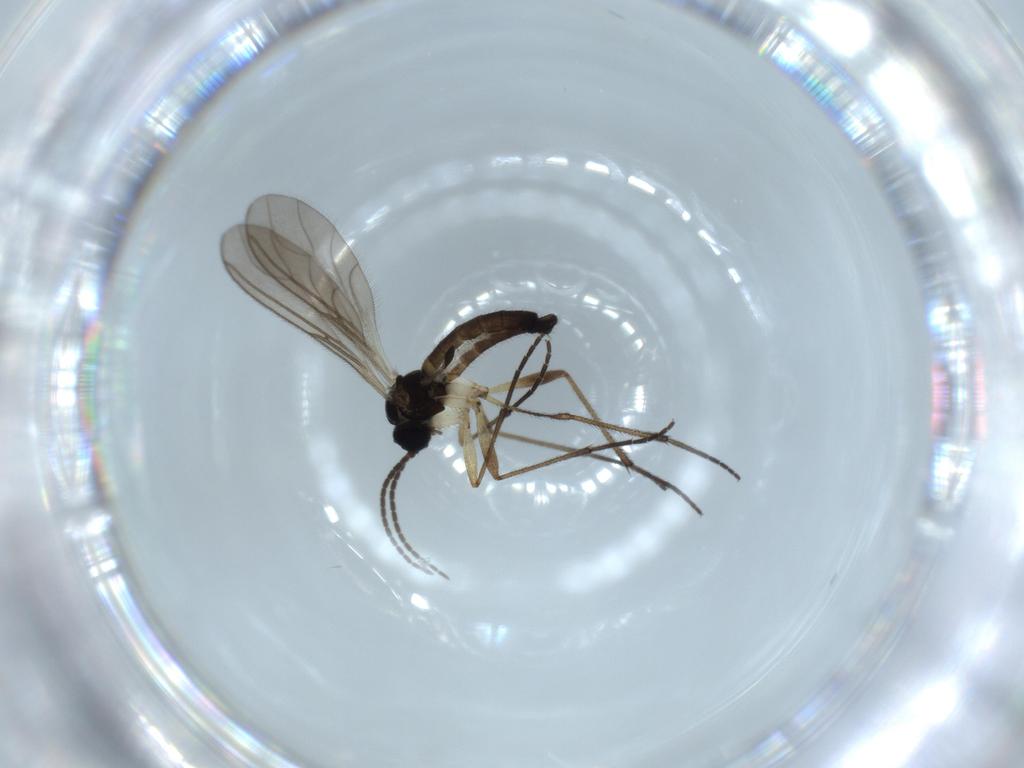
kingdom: Animalia
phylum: Arthropoda
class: Insecta
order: Diptera
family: Sciaridae
